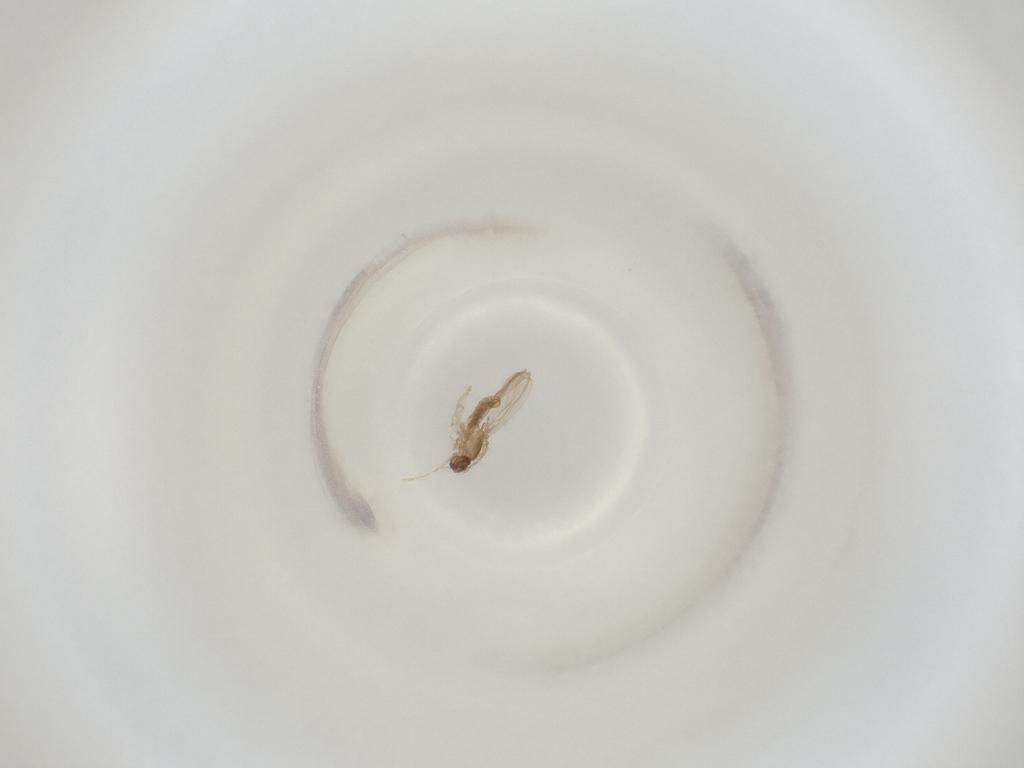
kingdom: Animalia
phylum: Arthropoda
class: Insecta
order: Diptera
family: Cecidomyiidae
